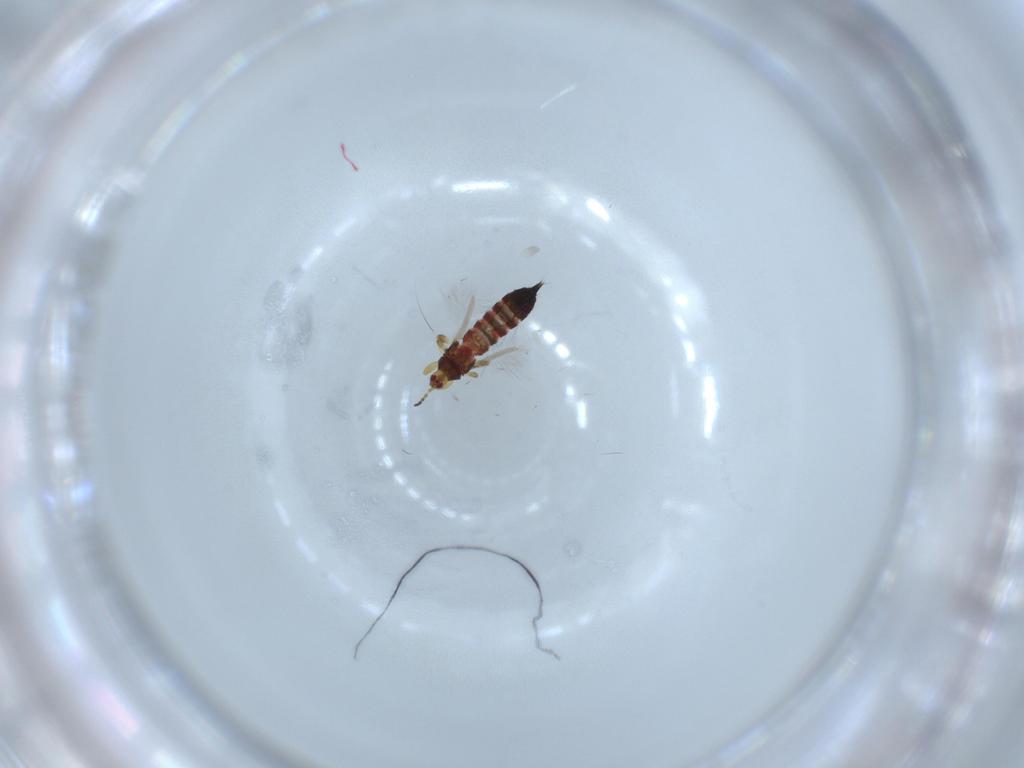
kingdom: Animalia
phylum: Arthropoda
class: Insecta
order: Thysanoptera
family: Phlaeothripidae
